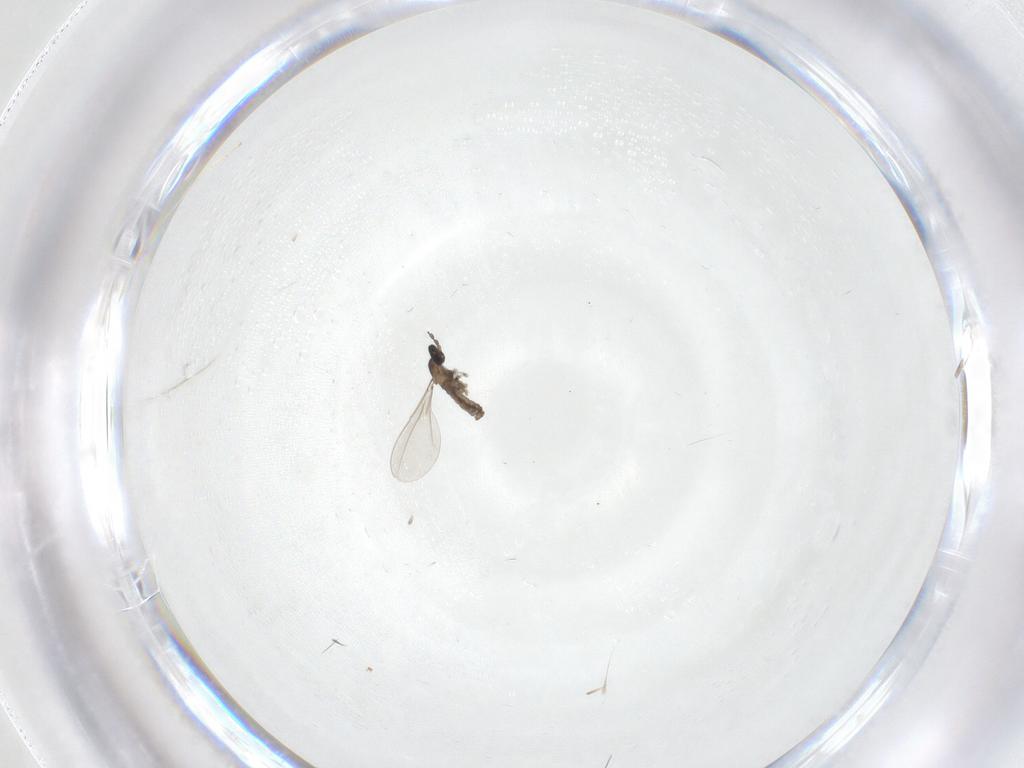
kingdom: Animalia
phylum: Arthropoda
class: Insecta
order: Diptera
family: Chironomidae
